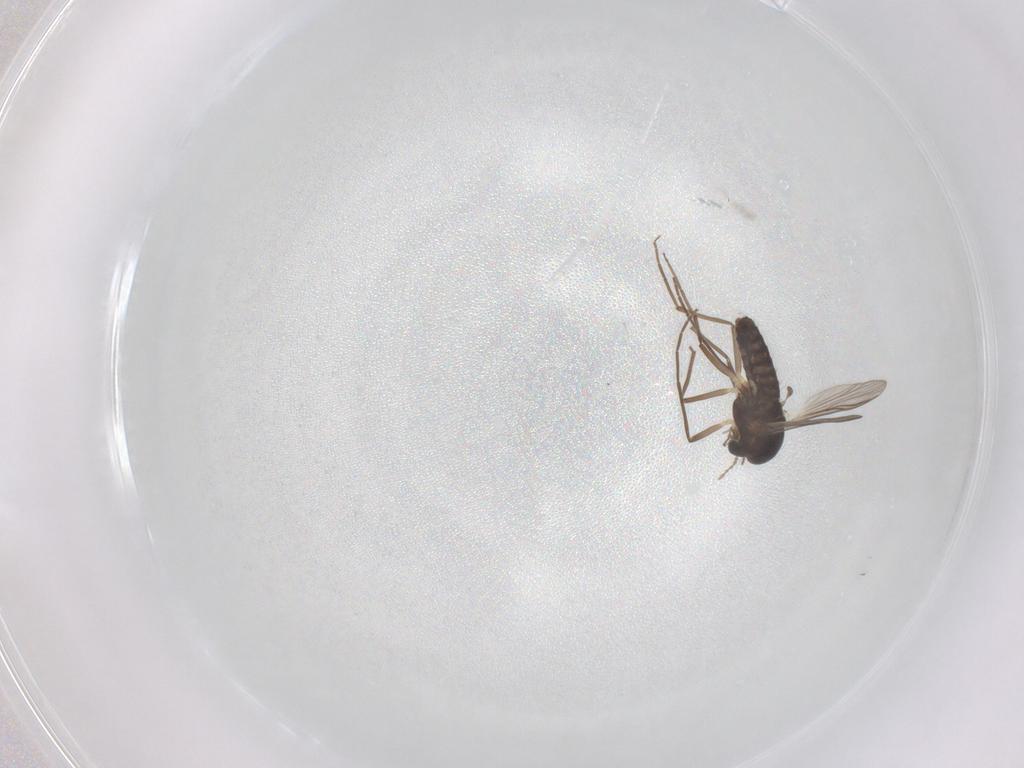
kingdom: Animalia
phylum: Arthropoda
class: Insecta
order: Diptera
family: Chironomidae
